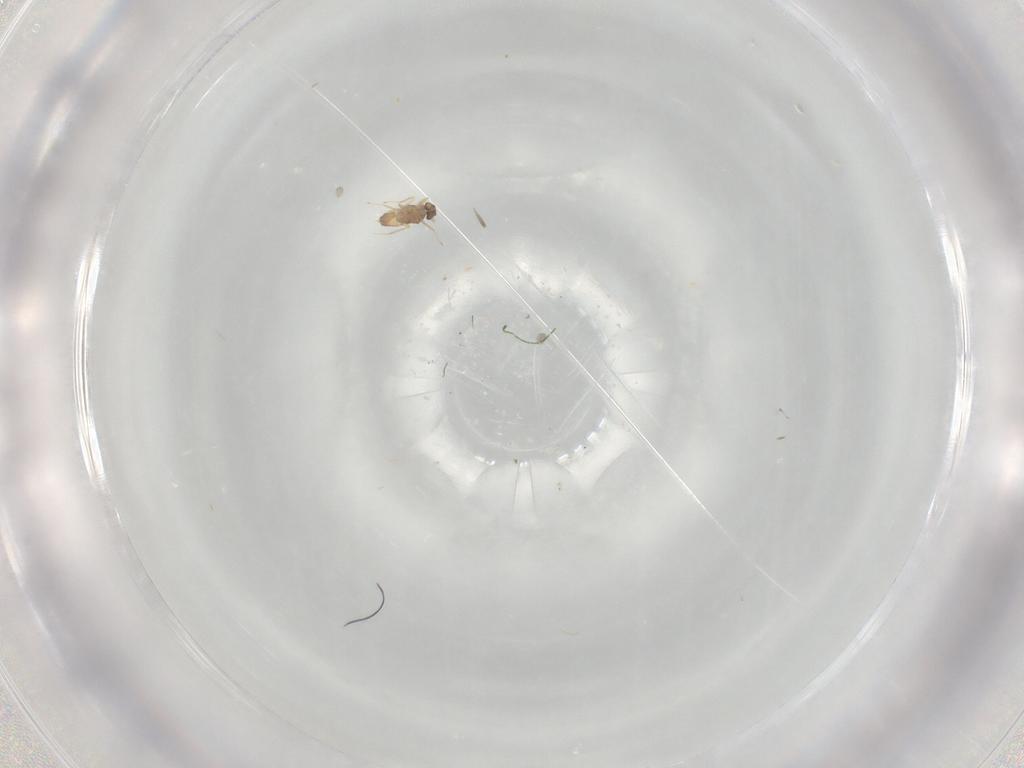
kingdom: Animalia
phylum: Arthropoda
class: Insecta
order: Hymenoptera
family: Mymaridae
